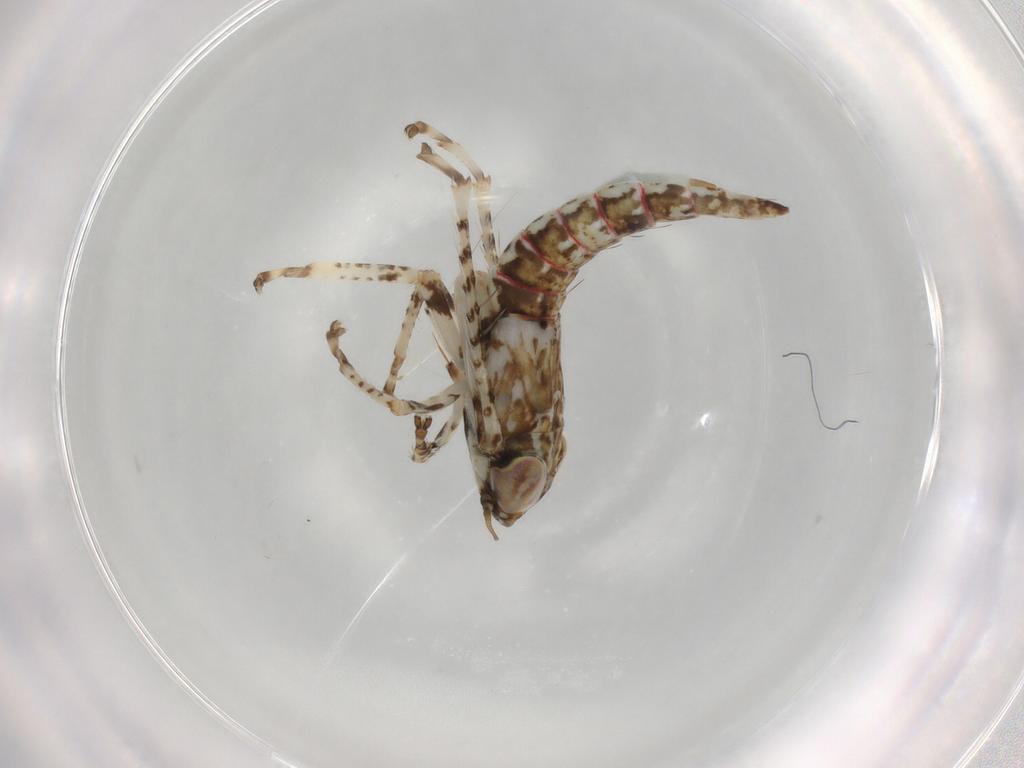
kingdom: Animalia
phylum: Arthropoda
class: Insecta
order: Hemiptera
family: Cicadellidae
